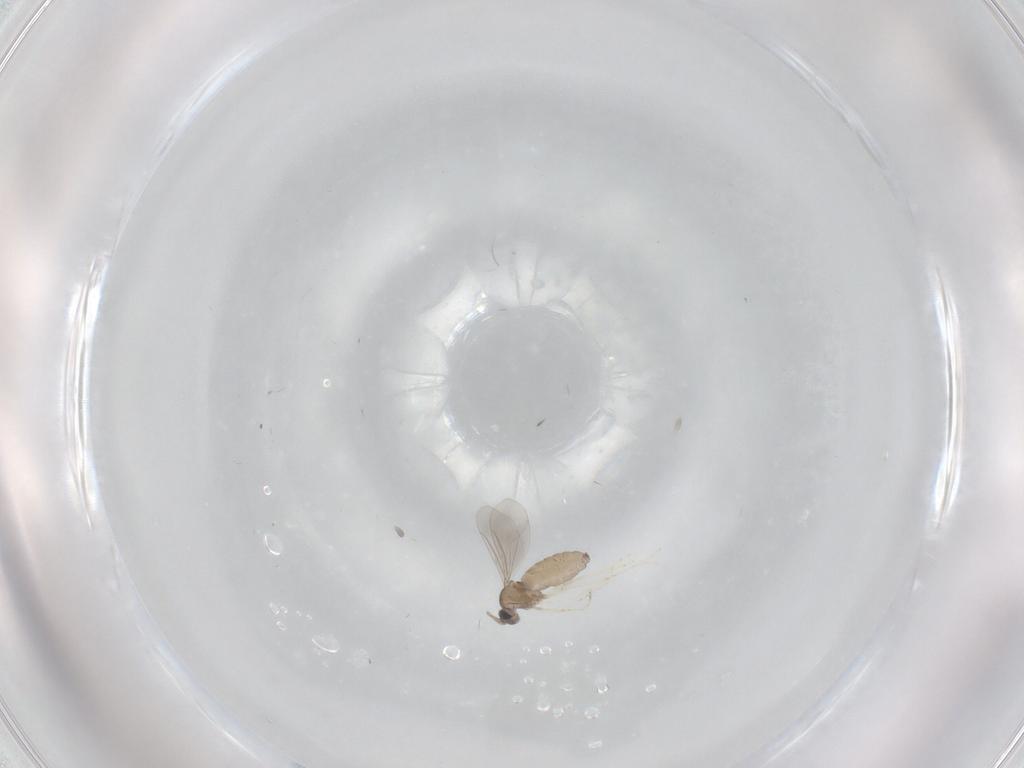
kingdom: Animalia
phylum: Arthropoda
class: Insecta
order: Diptera
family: Cecidomyiidae
